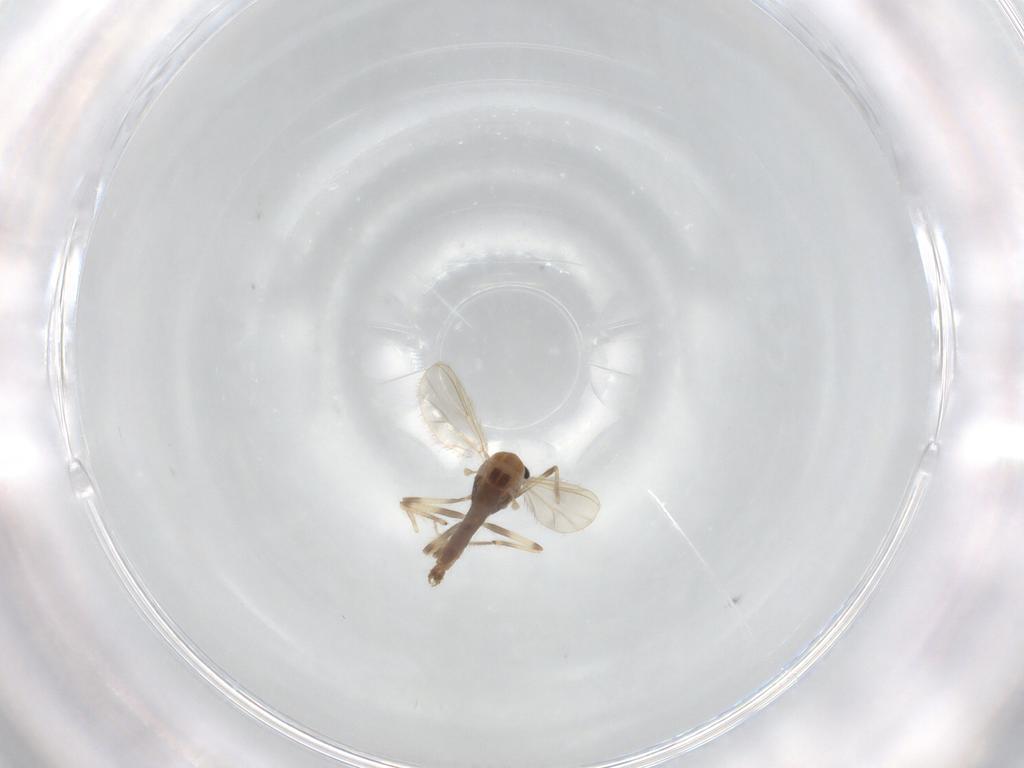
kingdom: Animalia
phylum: Arthropoda
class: Insecta
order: Diptera
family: Chironomidae
